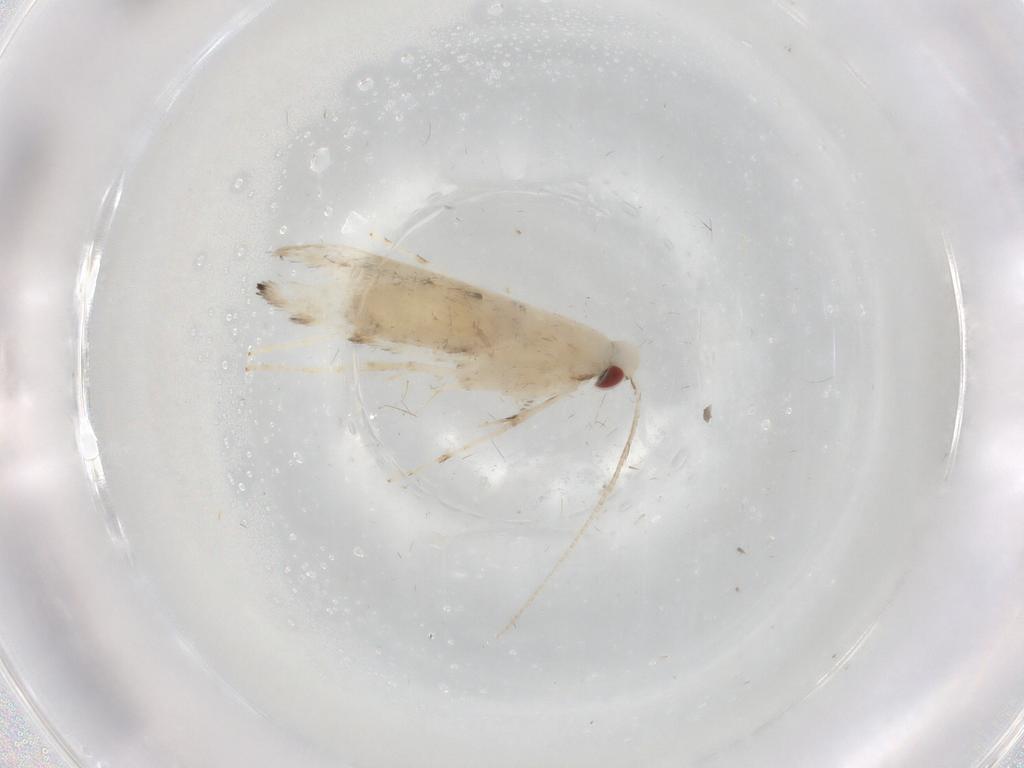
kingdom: Animalia
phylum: Arthropoda
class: Insecta
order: Lepidoptera
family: Gracillariidae
